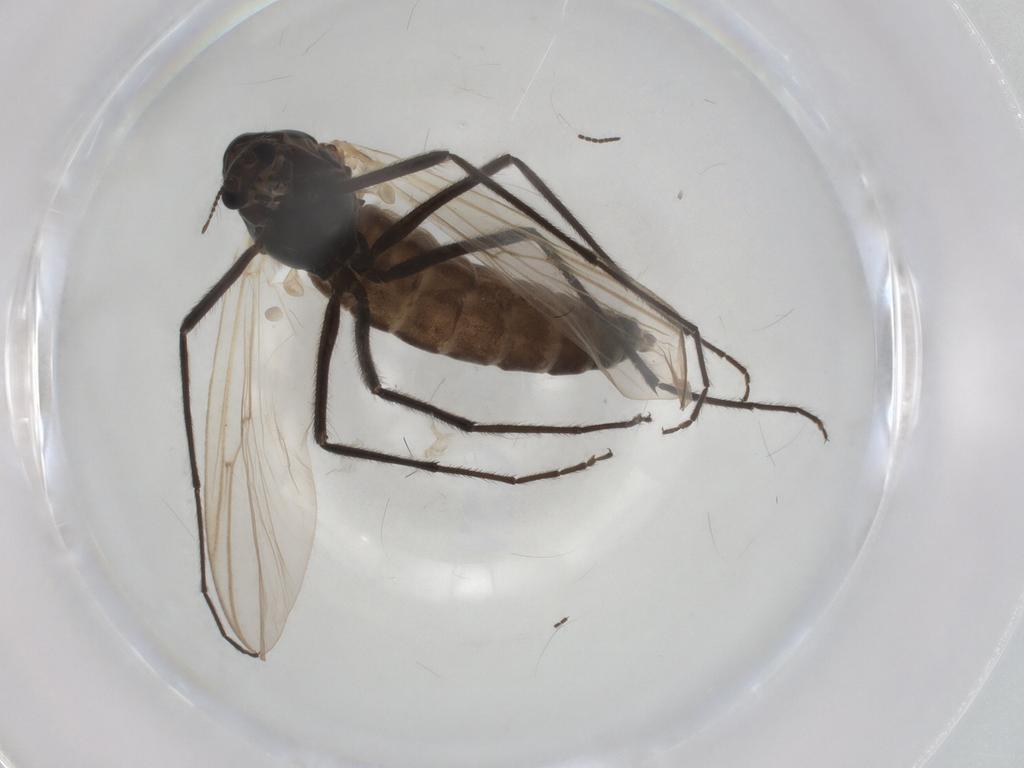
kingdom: Animalia
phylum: Arthropoda
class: Insecta
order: Diptera
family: Chironomidae
